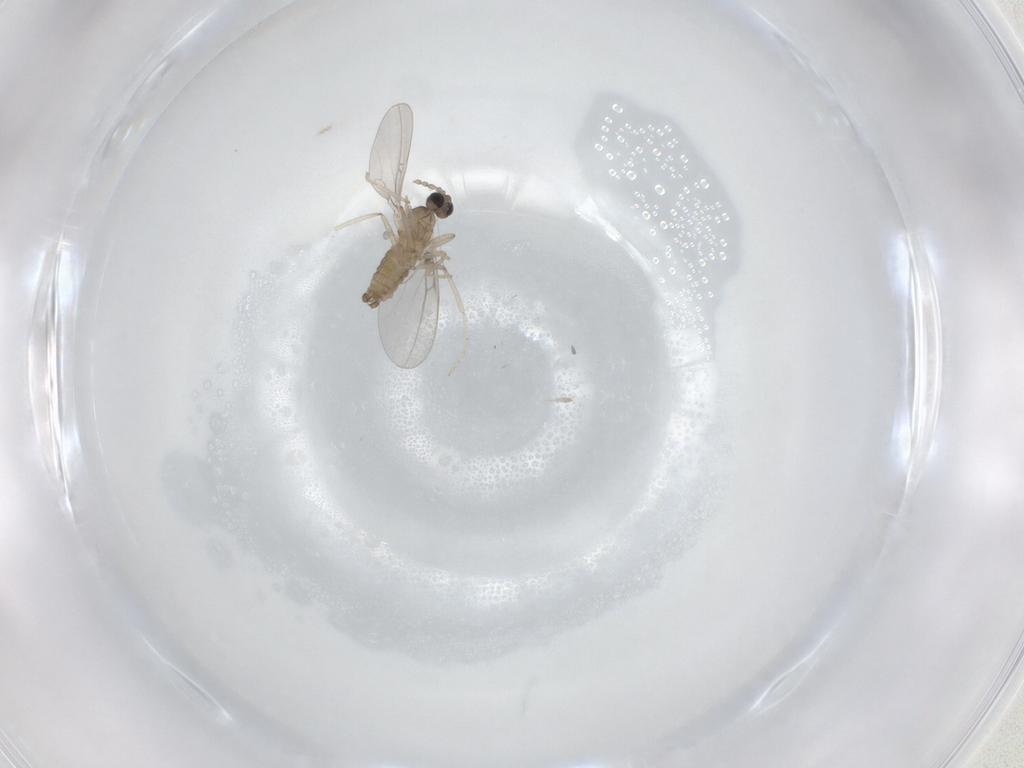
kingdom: Animalia
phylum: Arthropoda
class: Insecta
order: Diptera
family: Cecidomyiidae
